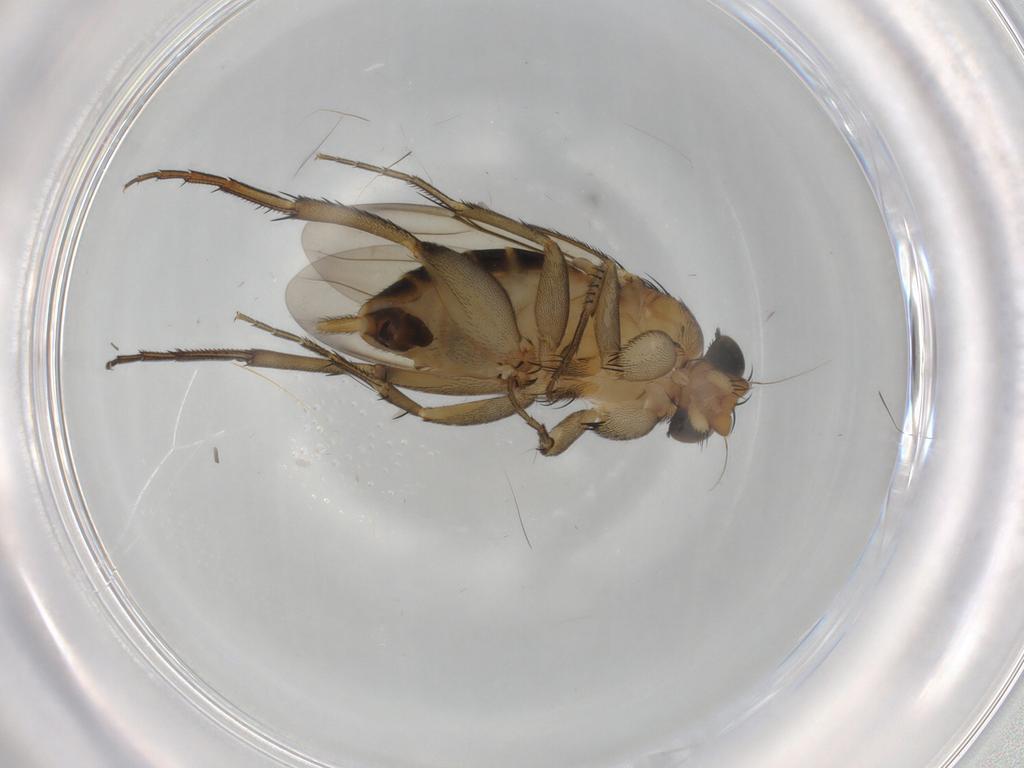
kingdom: Animalia
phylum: Arthropoda
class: Insecta
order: Diptera
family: Phoridae
